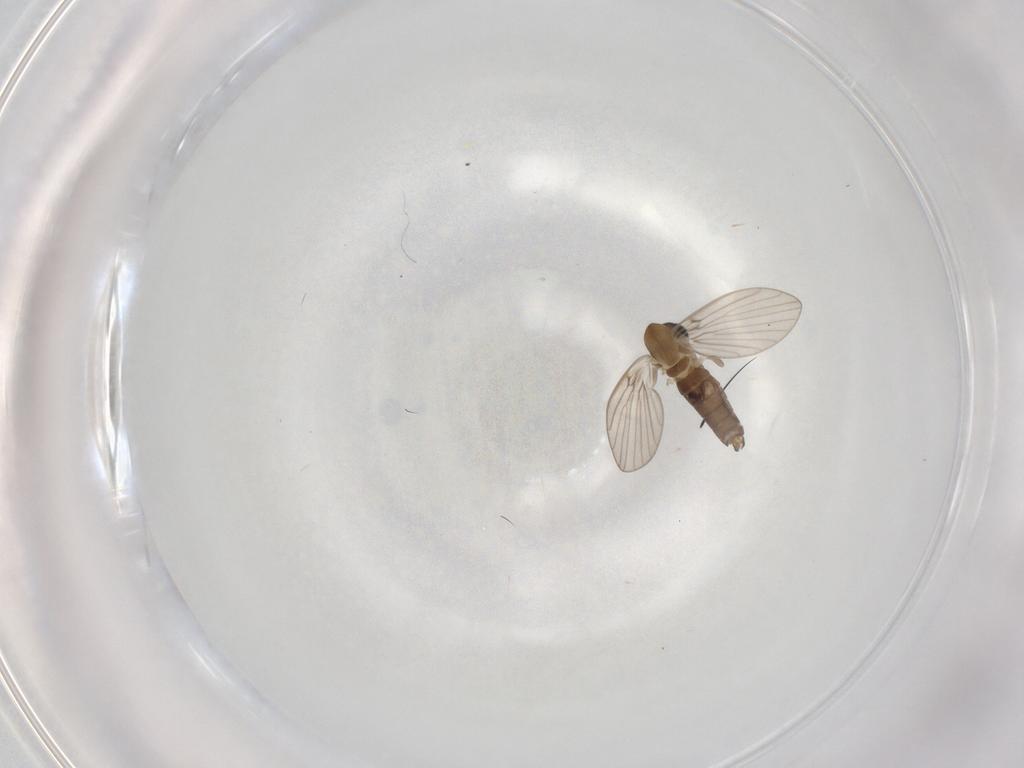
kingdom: Animalia
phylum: Arthropoda
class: Insecta
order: Diptera
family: Psychodidae
